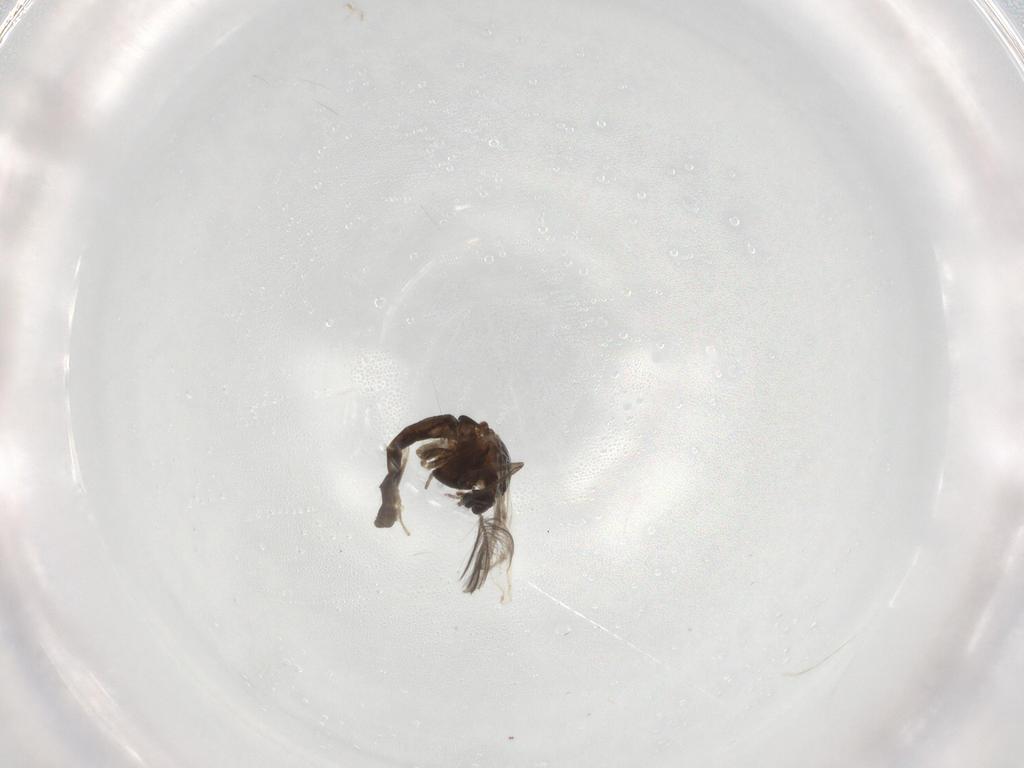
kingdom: Animalia
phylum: Arthropoda
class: Insecta
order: Diptera
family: Chironomidae
